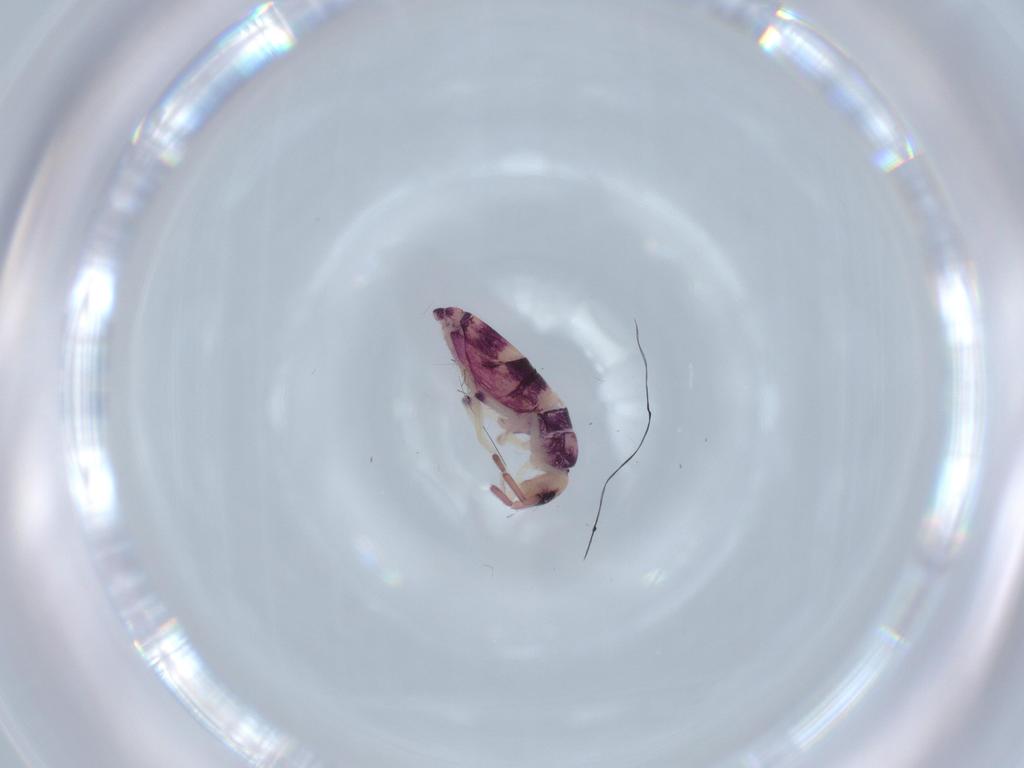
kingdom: Animalia
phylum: Arthropoda
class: Collembola
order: Entomobryomorpha
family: Entomobryidae
